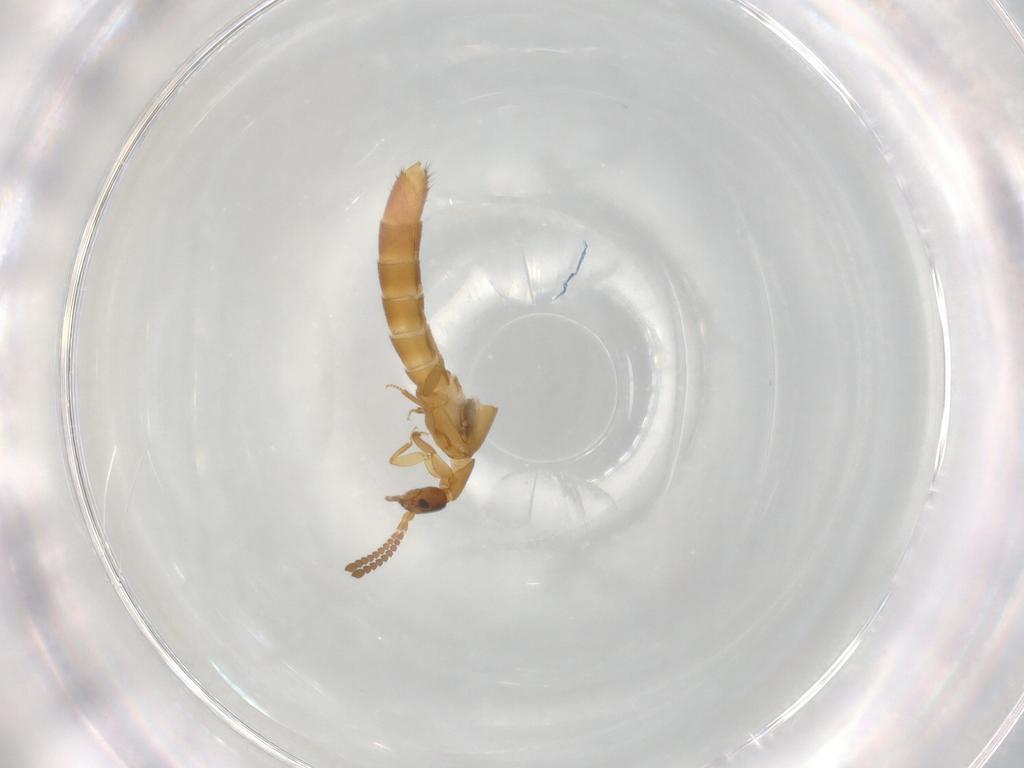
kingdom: Animalia
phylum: Arthropoda
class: Insecta
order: Coleoptera
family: Staphylinidae
